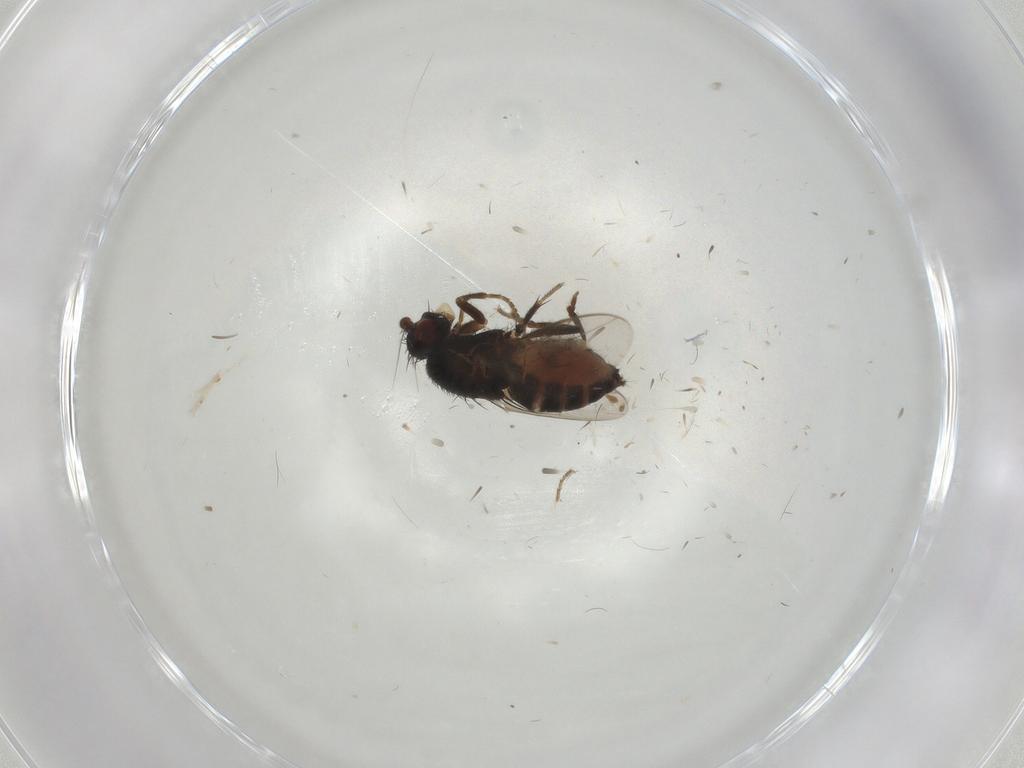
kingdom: Animalia
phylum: Arthropoda
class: Insecta
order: Diptera
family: Sphaeroceridae
